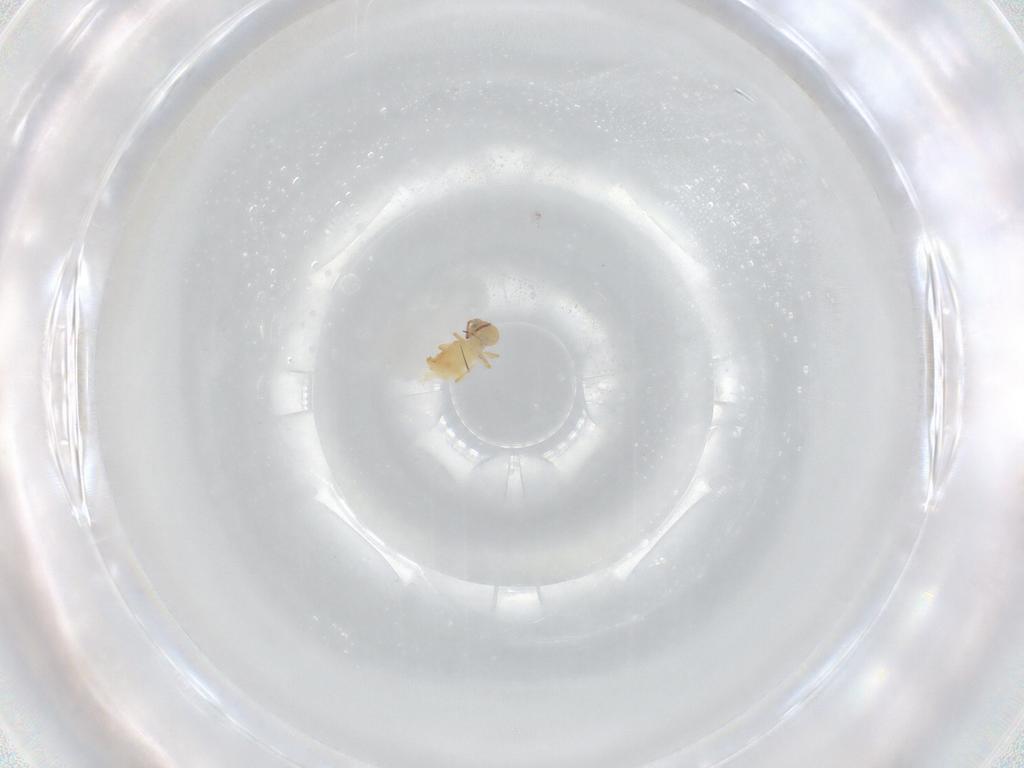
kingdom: Animalia
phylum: Arthropoda
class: Collembola
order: Symphypleona
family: Bourletiellidae
